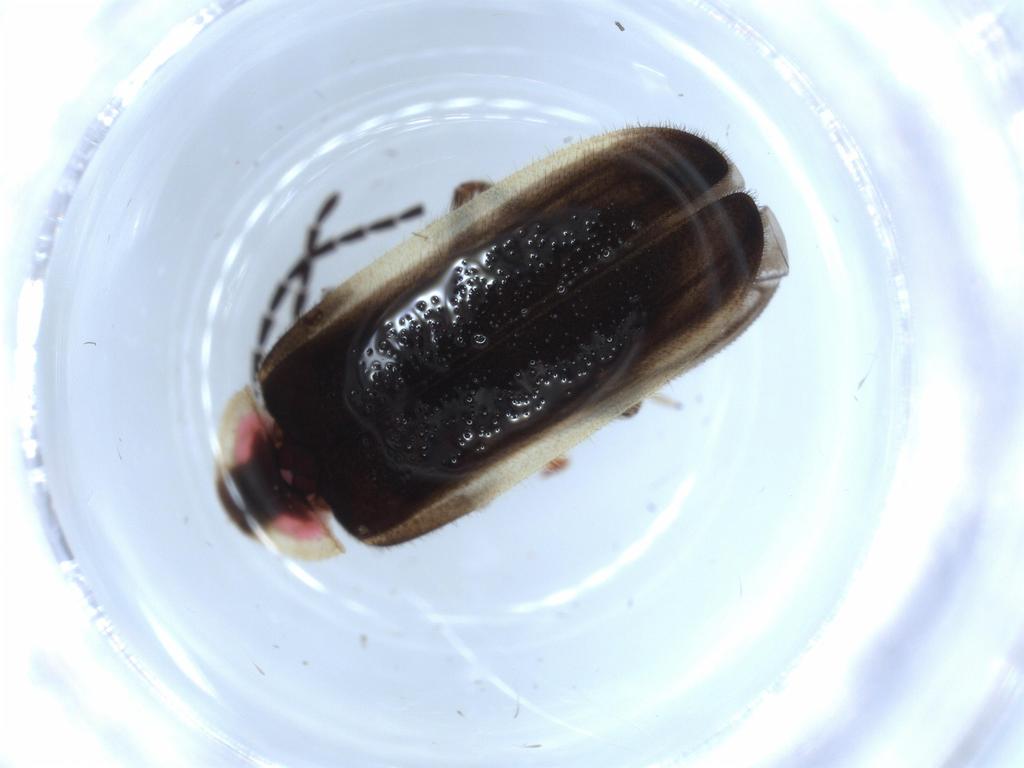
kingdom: Animalia
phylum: Arthropoda
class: Insecta
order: Coleoptera
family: Lampyridae
